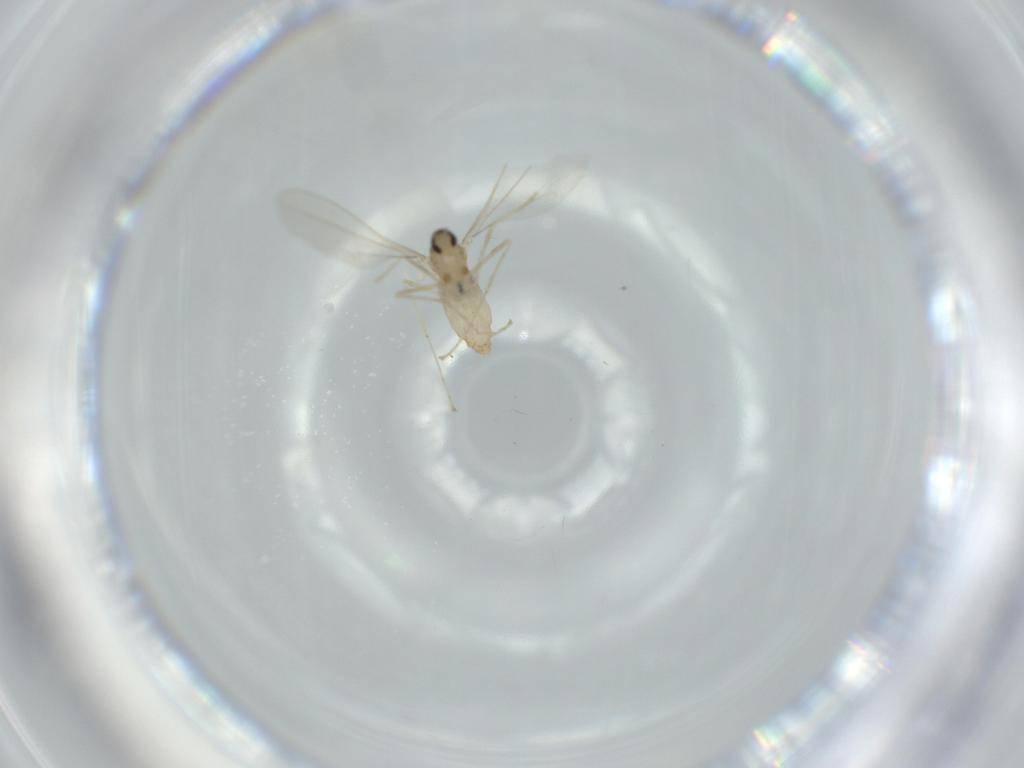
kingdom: Animalia
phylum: Arthropoda
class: Insecta
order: Diptera
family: Cecidomyiidae
